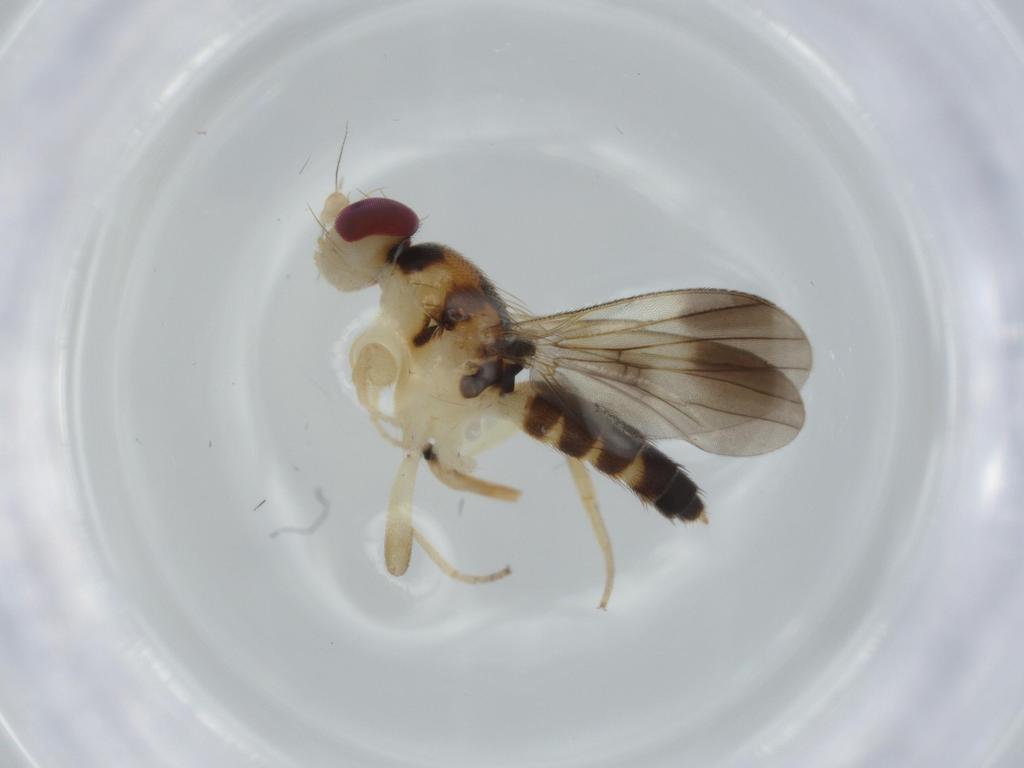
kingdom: Animalia
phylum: Arthropoda
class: Insecta
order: Diptera
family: Clusiidae
